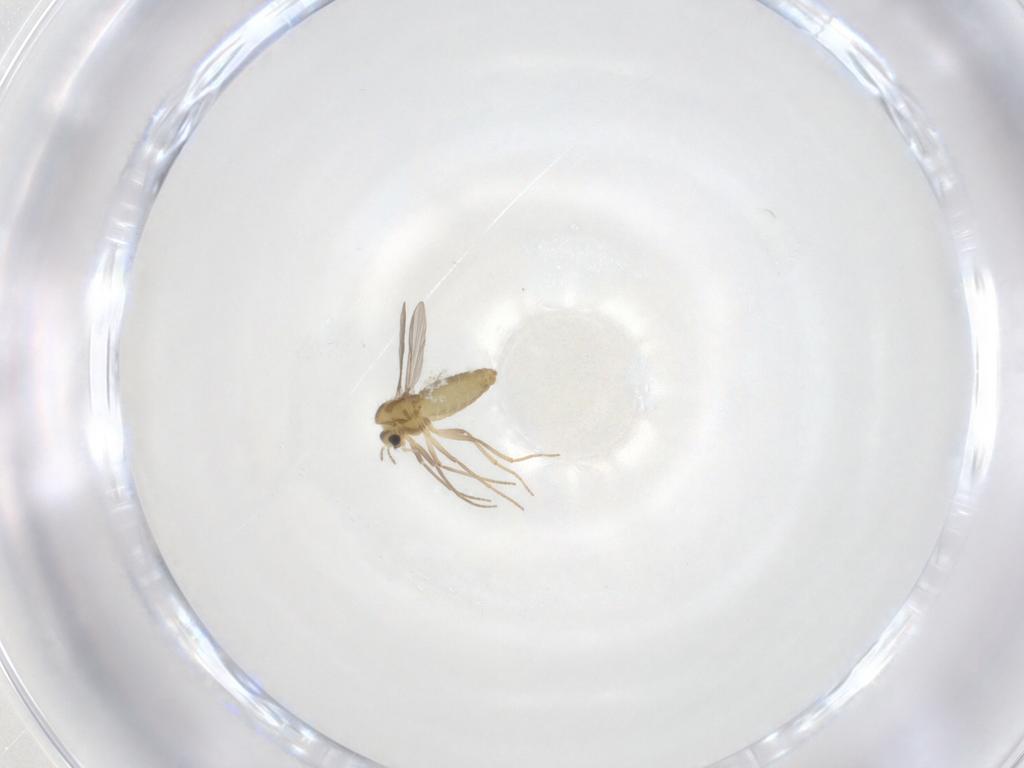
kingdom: Animalia
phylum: Arthropoda
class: Insecta
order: Diptera
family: Chironomidae
